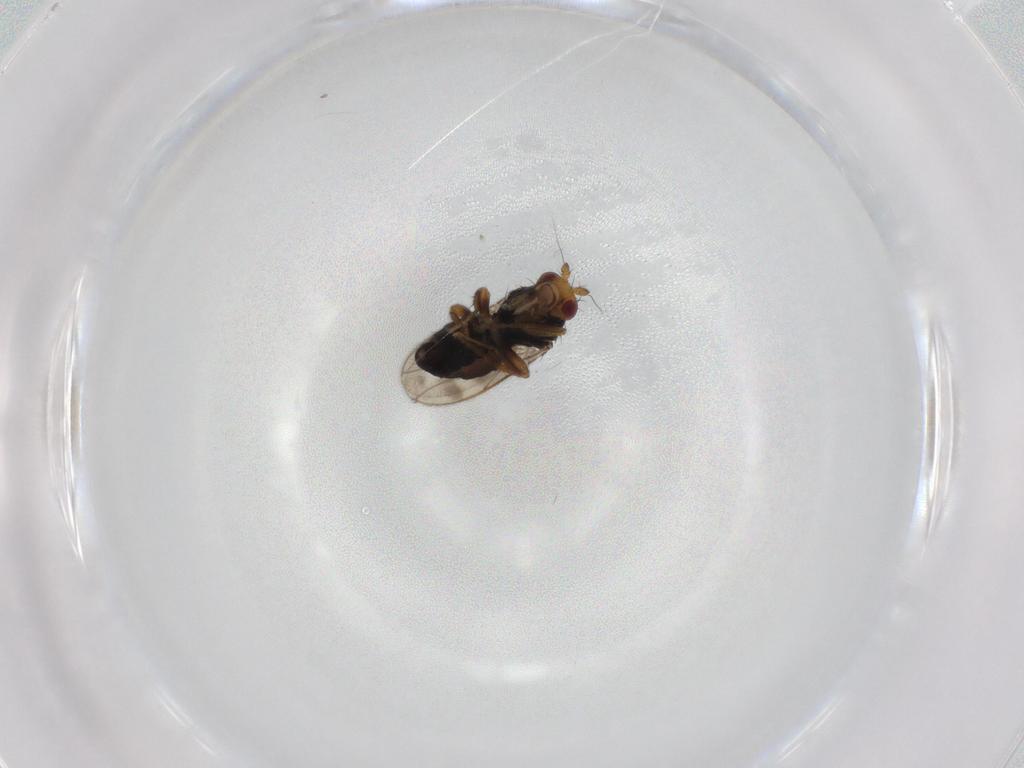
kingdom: Animalia
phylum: Arthropoda
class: Insecta
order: Diptera
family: Sphaeroceridae
